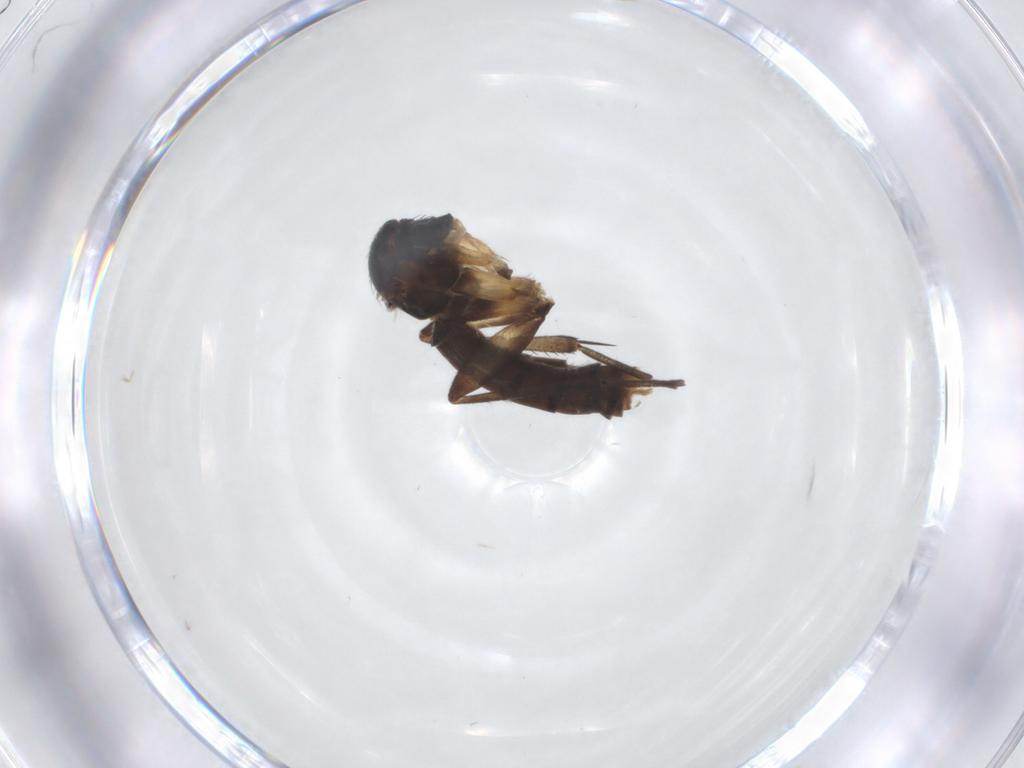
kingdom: Animalia
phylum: Arthropoda
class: Insecta
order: Diptera
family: Mycetophilidae
